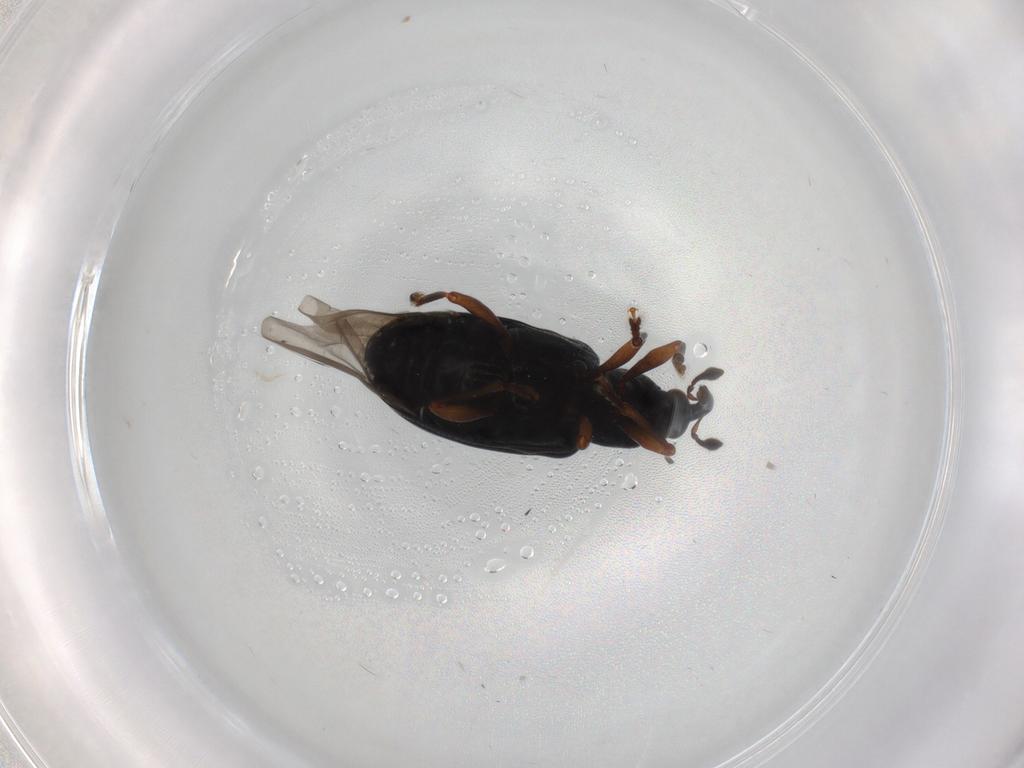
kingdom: Animalia
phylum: Arthropoda
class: Insecta
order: Coleoptera
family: Curculionidae
